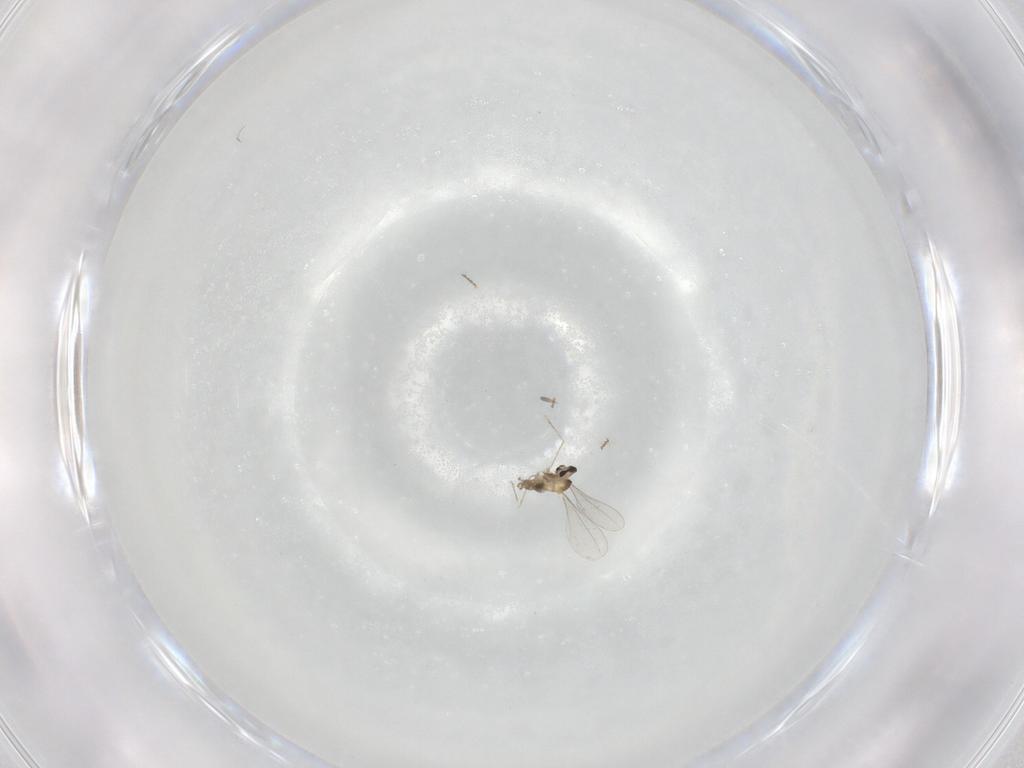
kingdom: Animalia
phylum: Arthropoda
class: Insecta
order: Diptera
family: Cecidomyiidae
